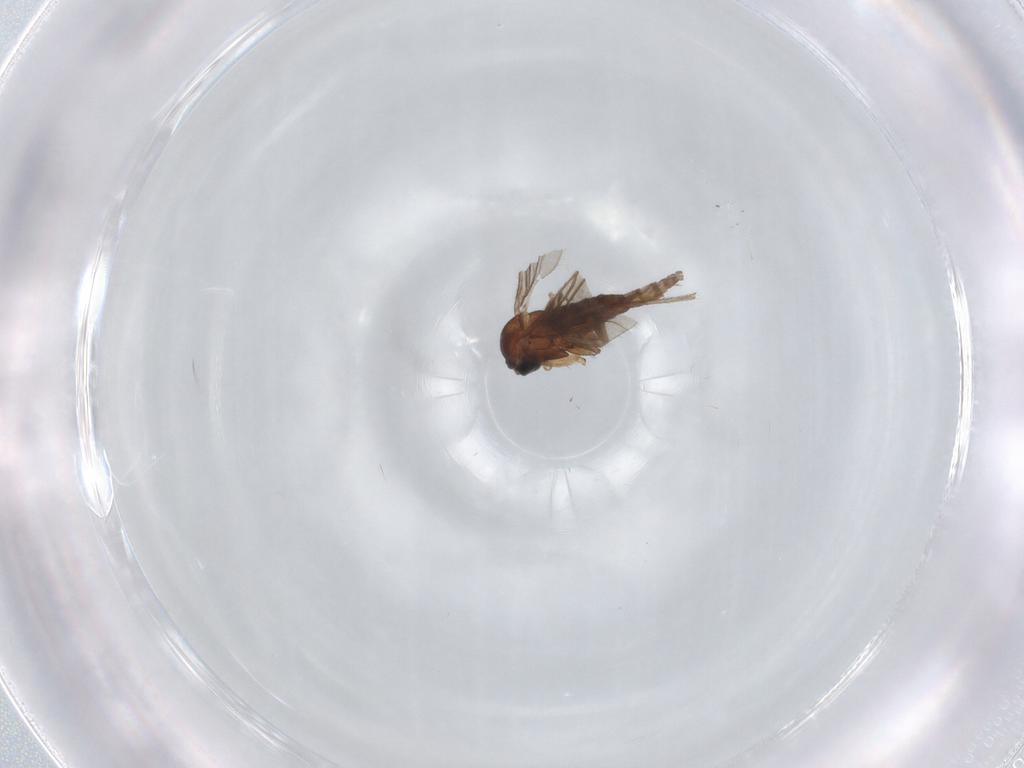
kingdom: Animalia
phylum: Arthropoda
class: Insecta
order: Diptera
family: Sciaridae
